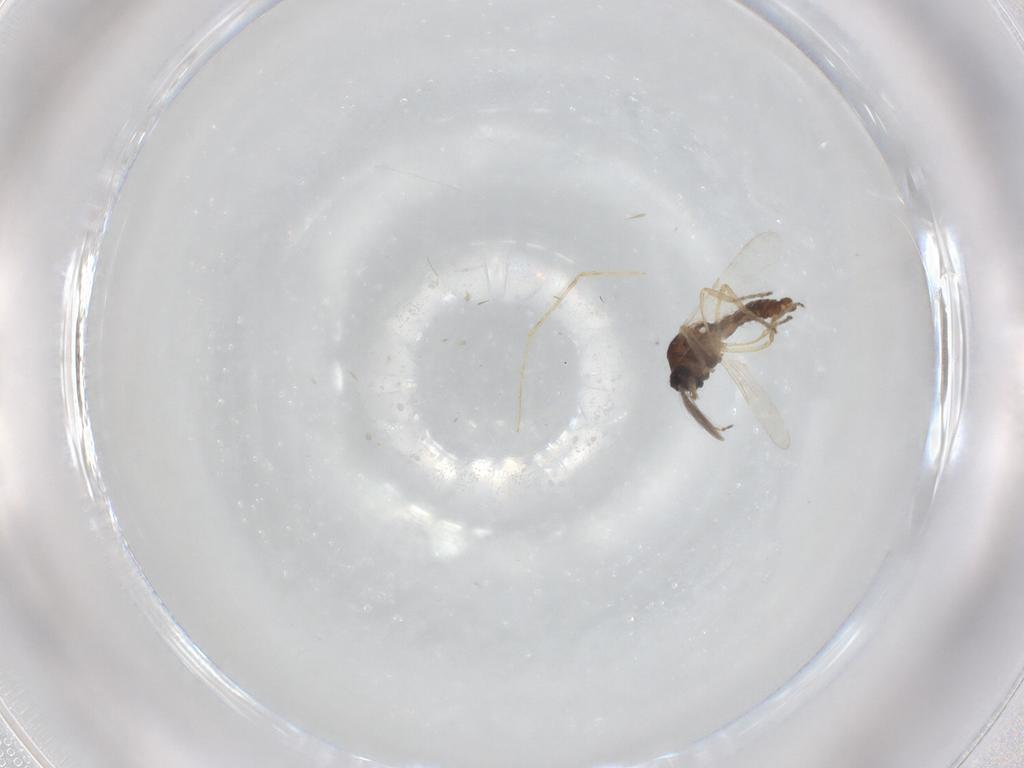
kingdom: Animalia
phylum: Arthropoda
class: Insecta
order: Diptera
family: Ceratopogonidae
